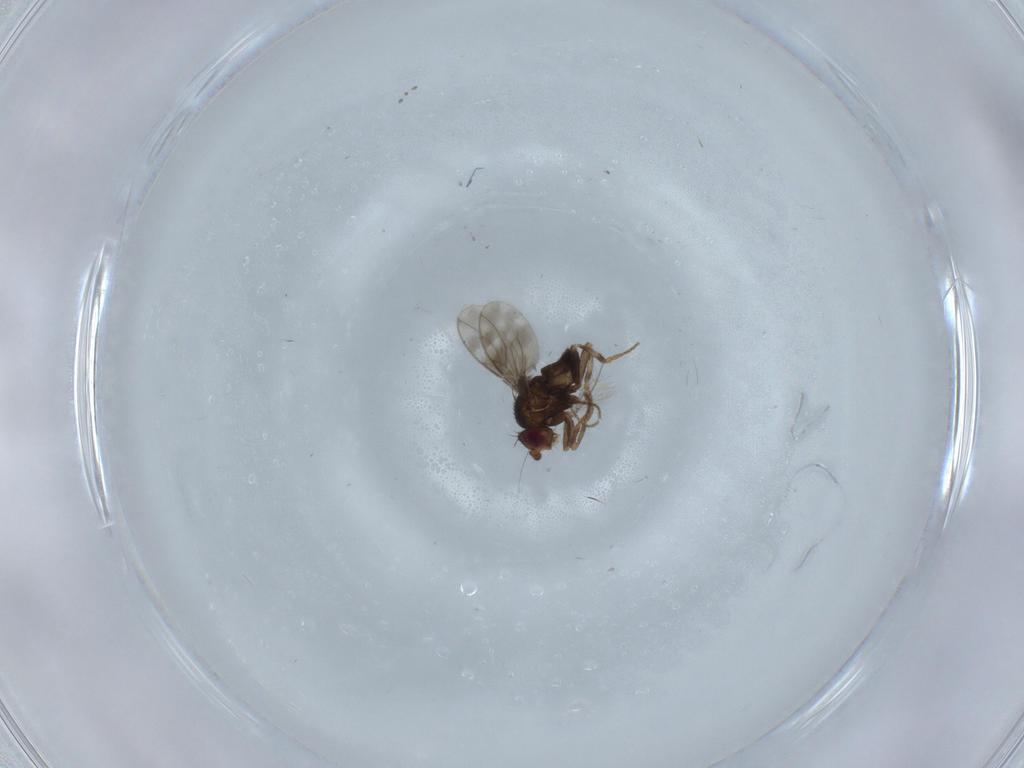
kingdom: Animalia
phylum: Arthropoda
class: Insecta
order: Diptera
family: Sphaeroceridae
